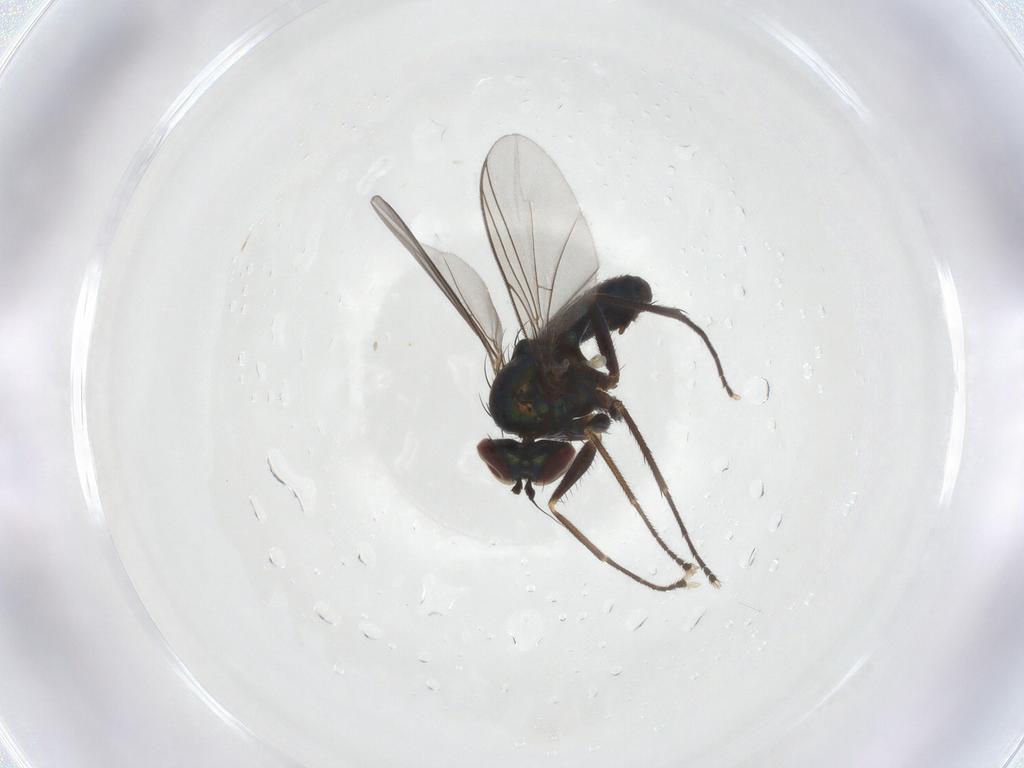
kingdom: Animalia
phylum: Arthropoda
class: Insecta
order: Diptera
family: Dolichopodidae
